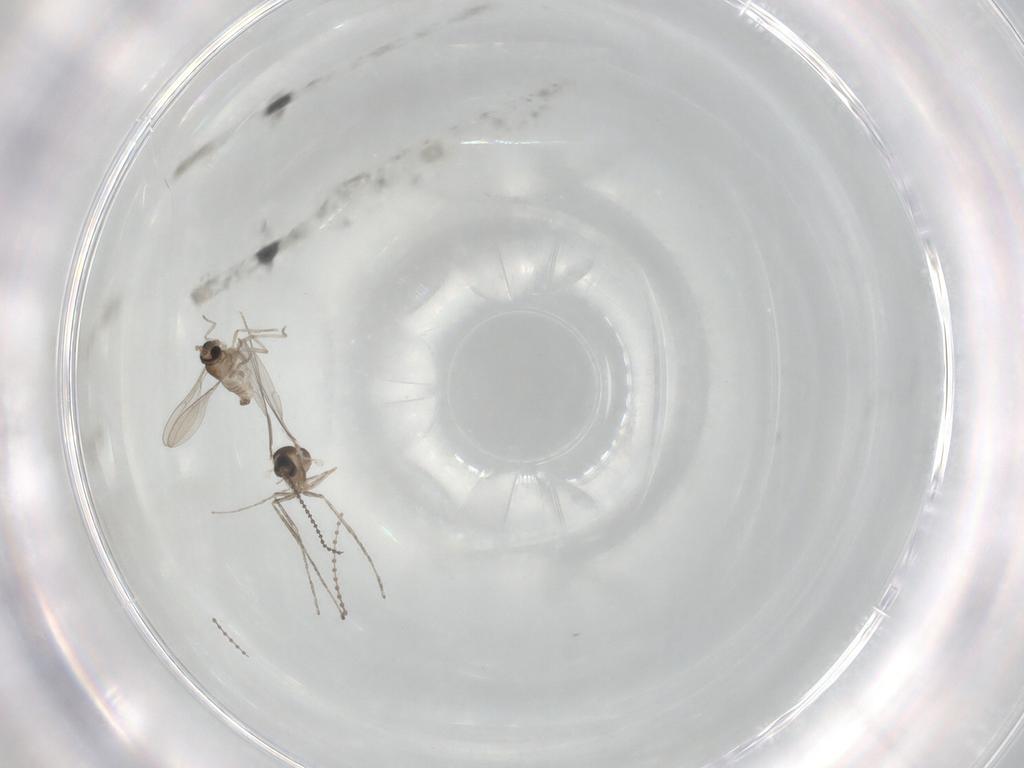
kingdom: Animalia
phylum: Arthropoda
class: Insecta
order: Diptera
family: Cecidomyiidae
